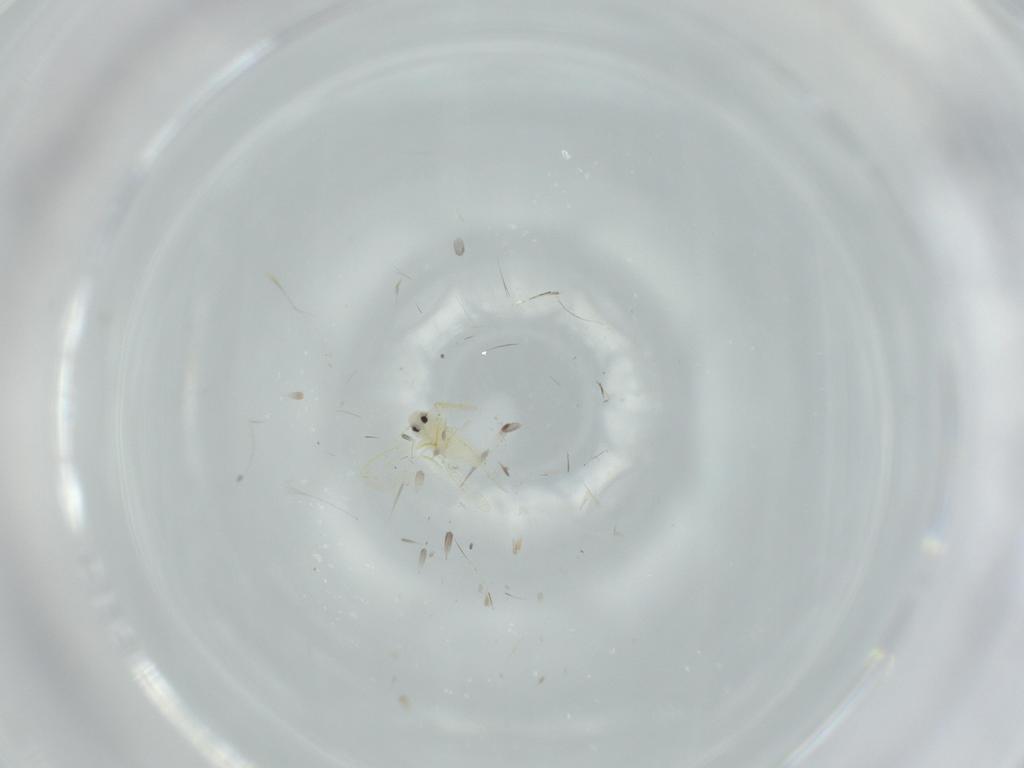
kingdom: Animalia
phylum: Arthropoda
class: Insecta
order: Hemiptera
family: Aleyrodidae
